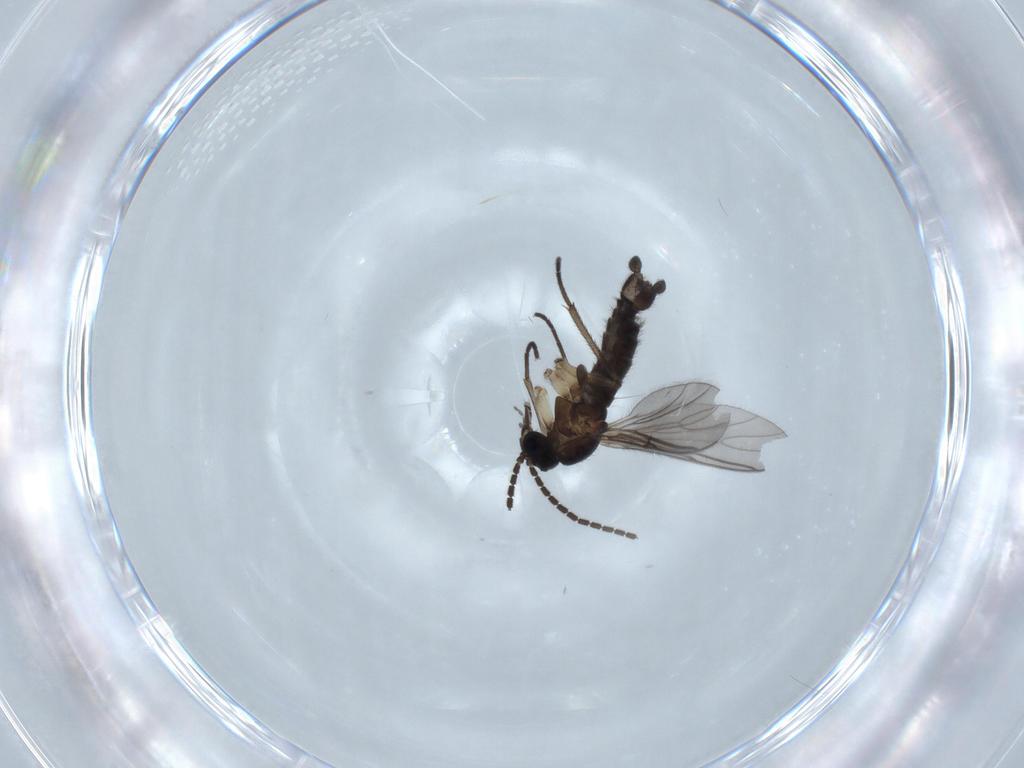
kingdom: Animalia
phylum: Arthropoda
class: Insecta
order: Diptera
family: Sciaridae
